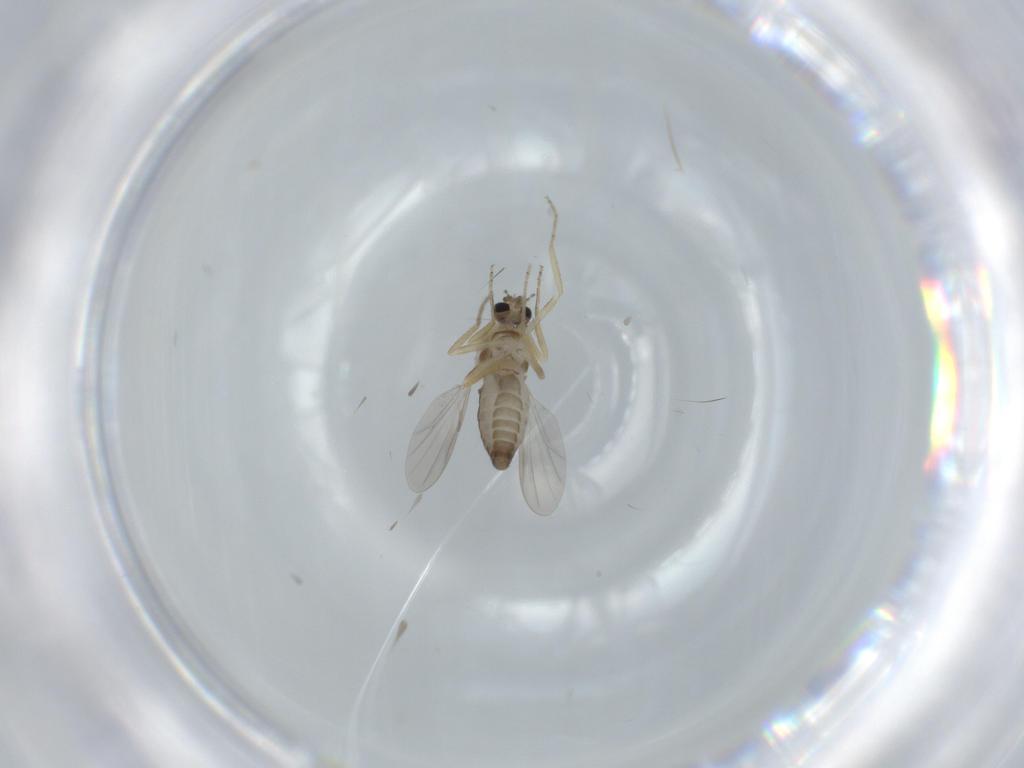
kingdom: Animalia
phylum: Arthropoda
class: Insecta
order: Diptera
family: Ceratopogonidae
